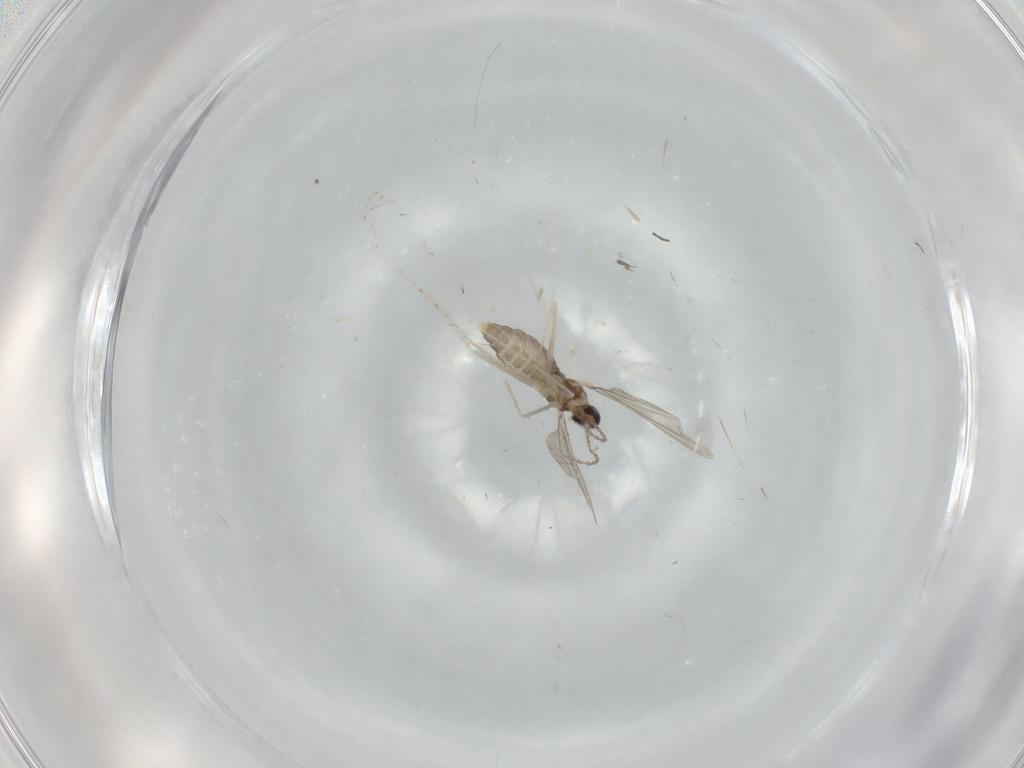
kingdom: Animalia
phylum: Arthropoda
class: Insecta
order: Diptera
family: Cecidomyiidae
